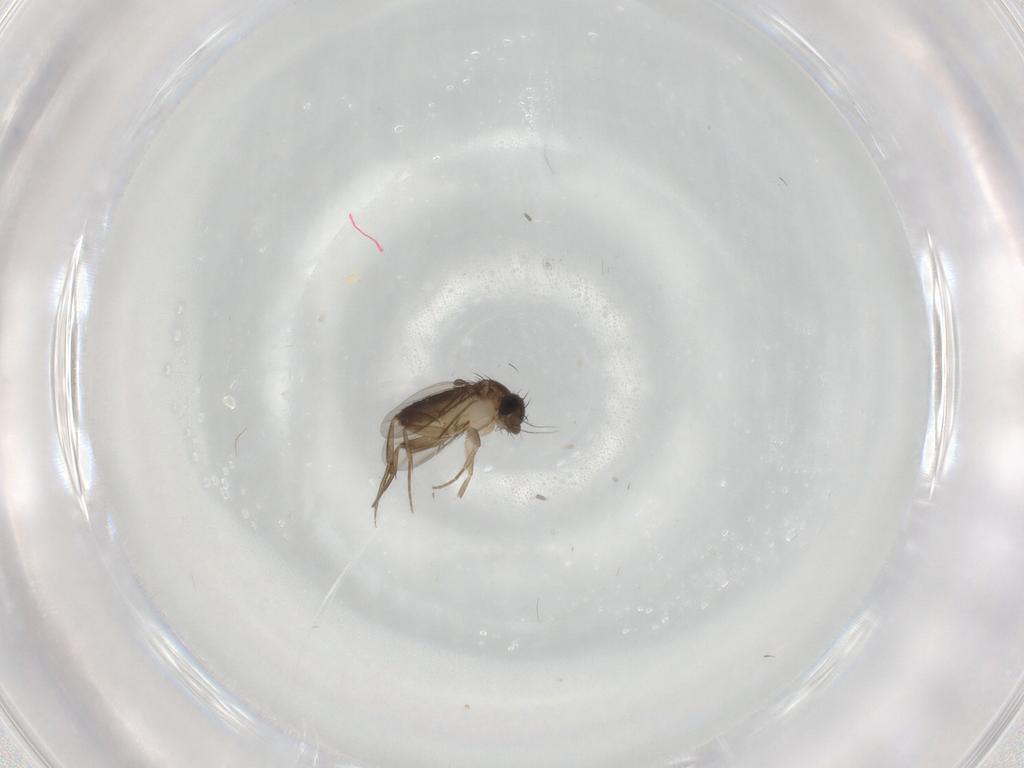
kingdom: Animalia
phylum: Arthropoda
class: Insecta
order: Diptera
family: Phoridae
